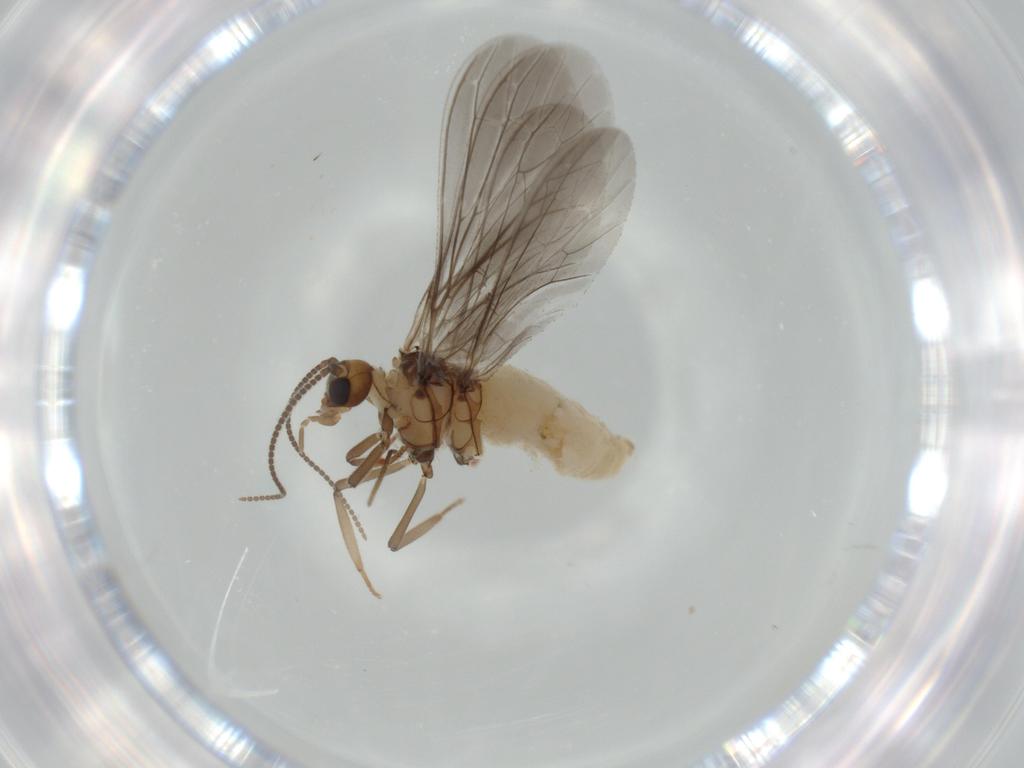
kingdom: Animalia
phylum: Arthropoda
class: Insecta
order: Neuroptera
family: Coniopterygidae
